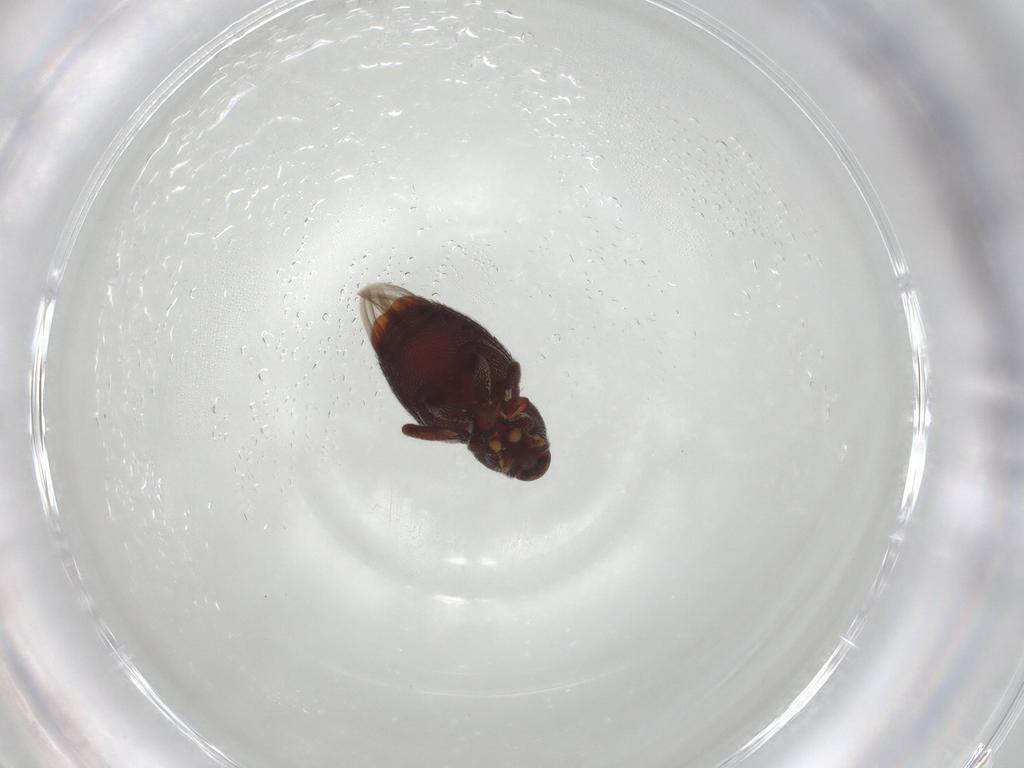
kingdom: Animalia
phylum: Arthropoda
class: Insecta
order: Coleoptera
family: Curculionidae
